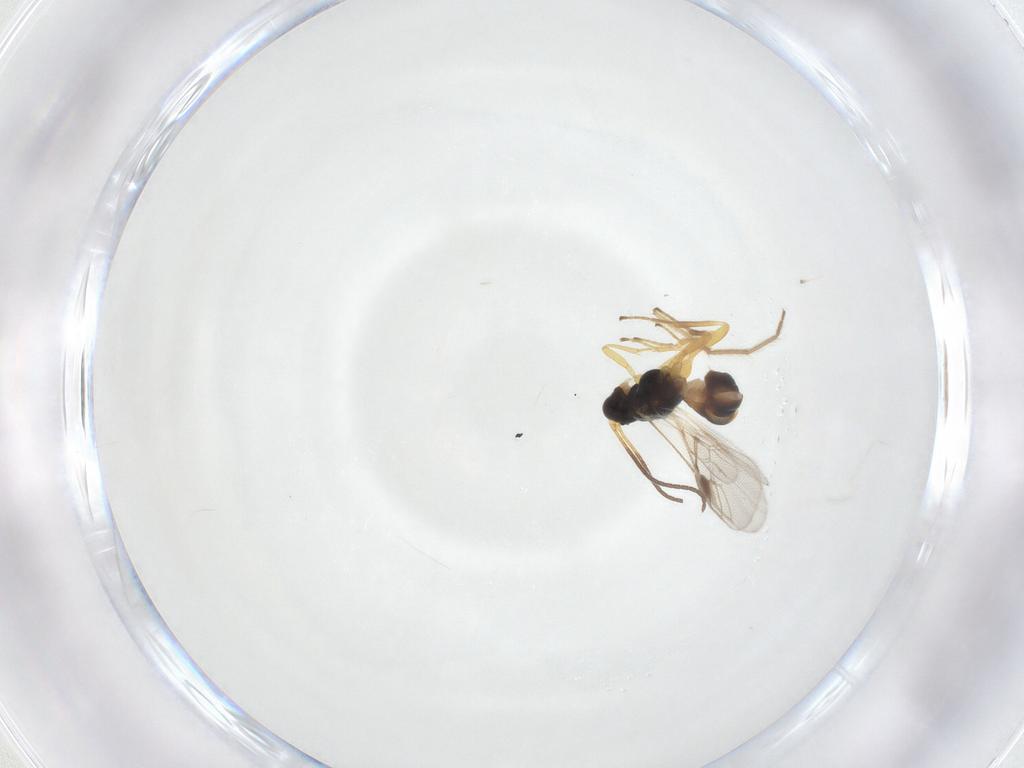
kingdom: Animalia
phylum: Arthropoda
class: Insecta
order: Hymenoptera
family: Braconidae
